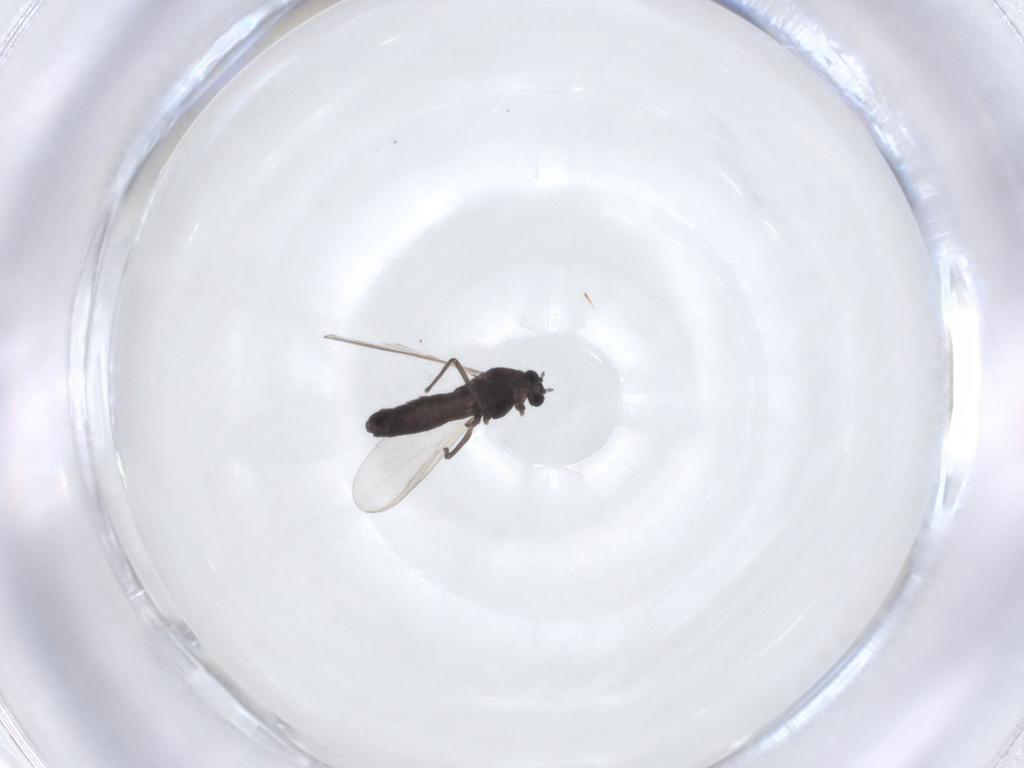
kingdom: Animalia
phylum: Arthropoda
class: Insecta
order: Diptera
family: Chironomidae
